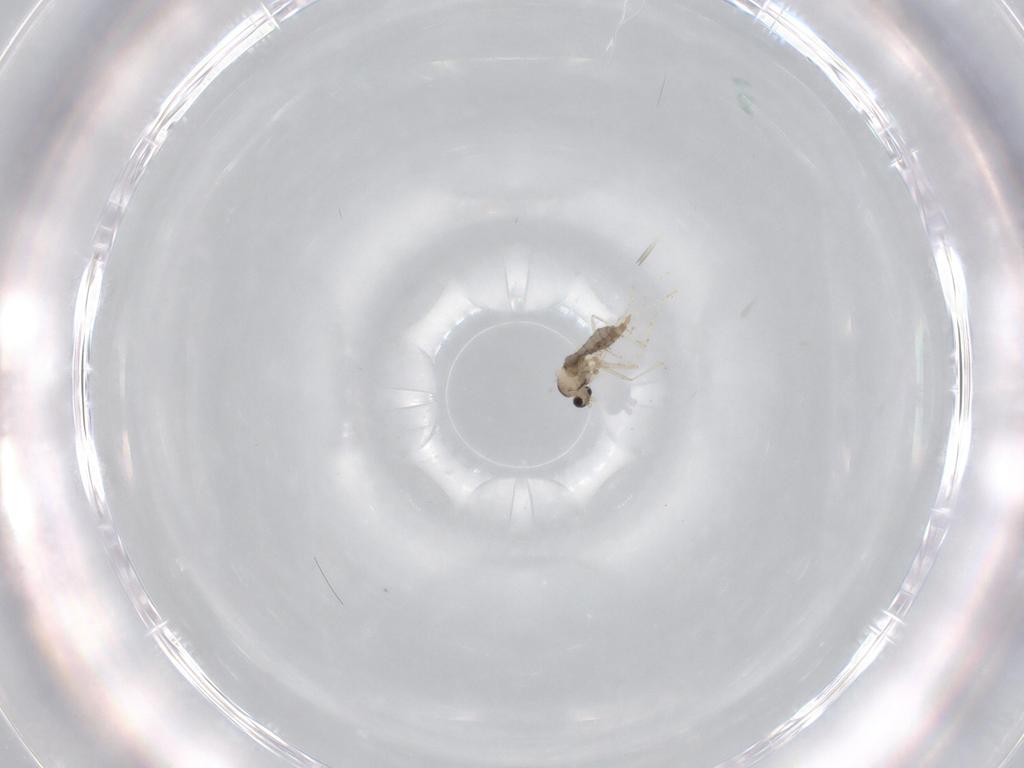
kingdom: Animalia
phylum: Arthropoda
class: Insecta
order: Diptera
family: Cecidomyiidae
